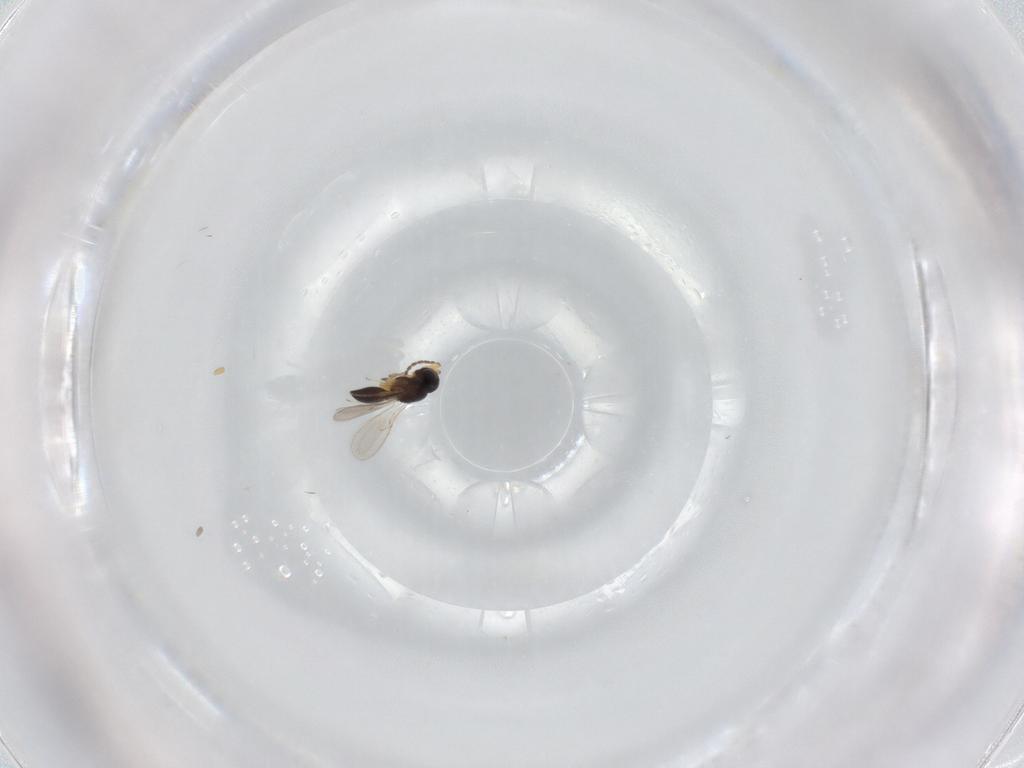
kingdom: Animalia
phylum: Arthropoda
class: Insecta
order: Hymenoptera
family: Scelionidae
